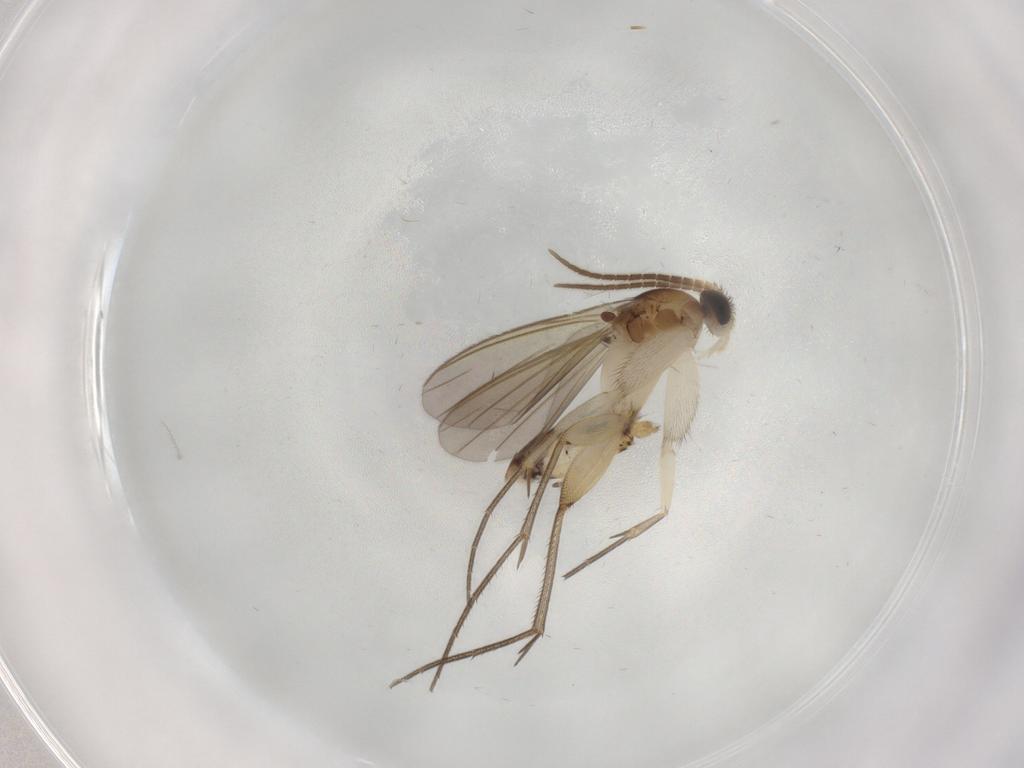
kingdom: Animalia
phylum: Arthropoda
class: Insecta
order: Diptera
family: Mycetophilidae
